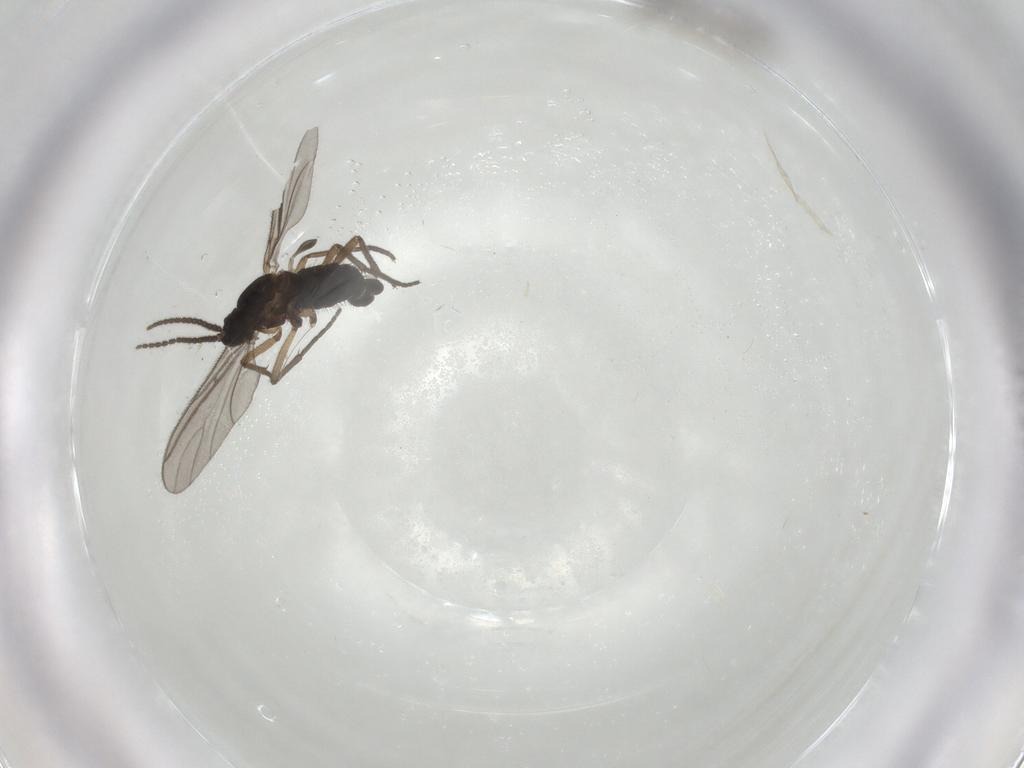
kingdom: Animalia
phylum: Arthropoda
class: Insecta
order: Diptera
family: Sciaridae
